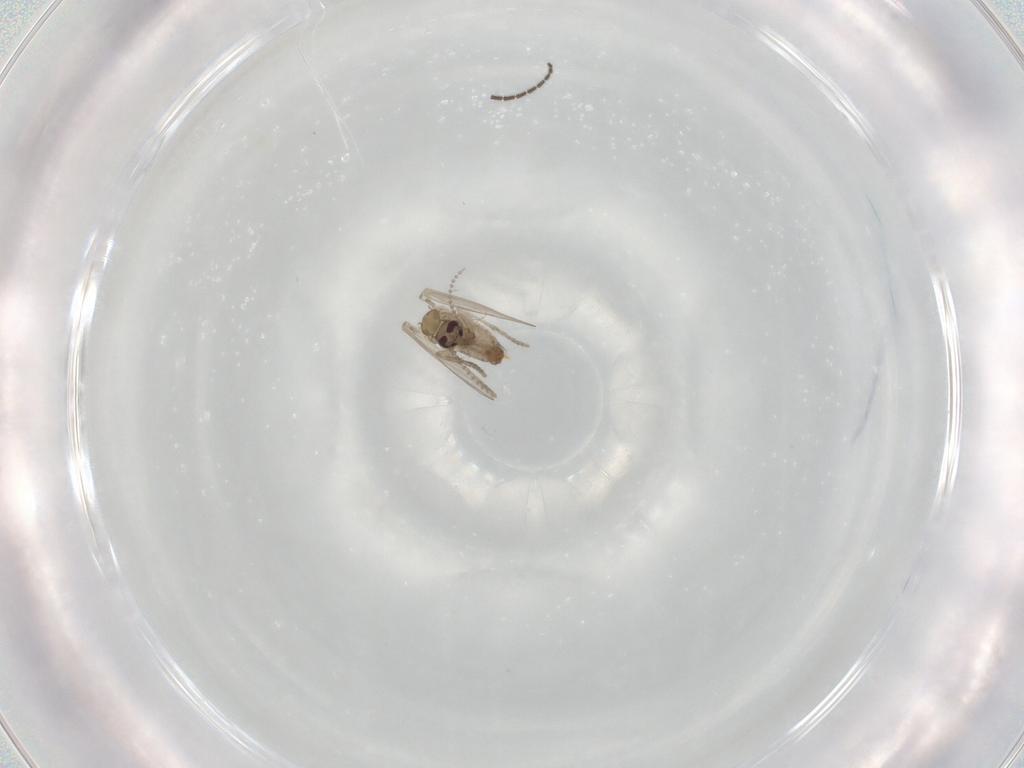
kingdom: Animalia
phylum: Arthropoda
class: Insecta
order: Diptera
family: Psychodidae
